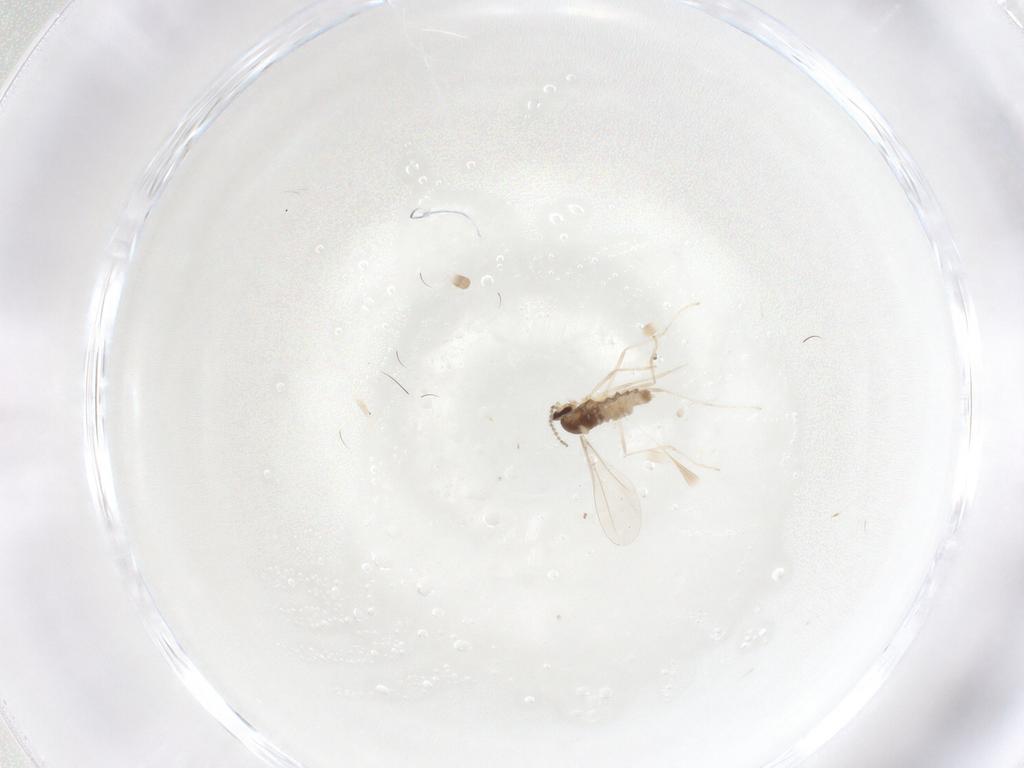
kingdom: Animalia
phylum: Arthropoda
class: Insecta
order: Diptera
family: Cecidomyiidae
